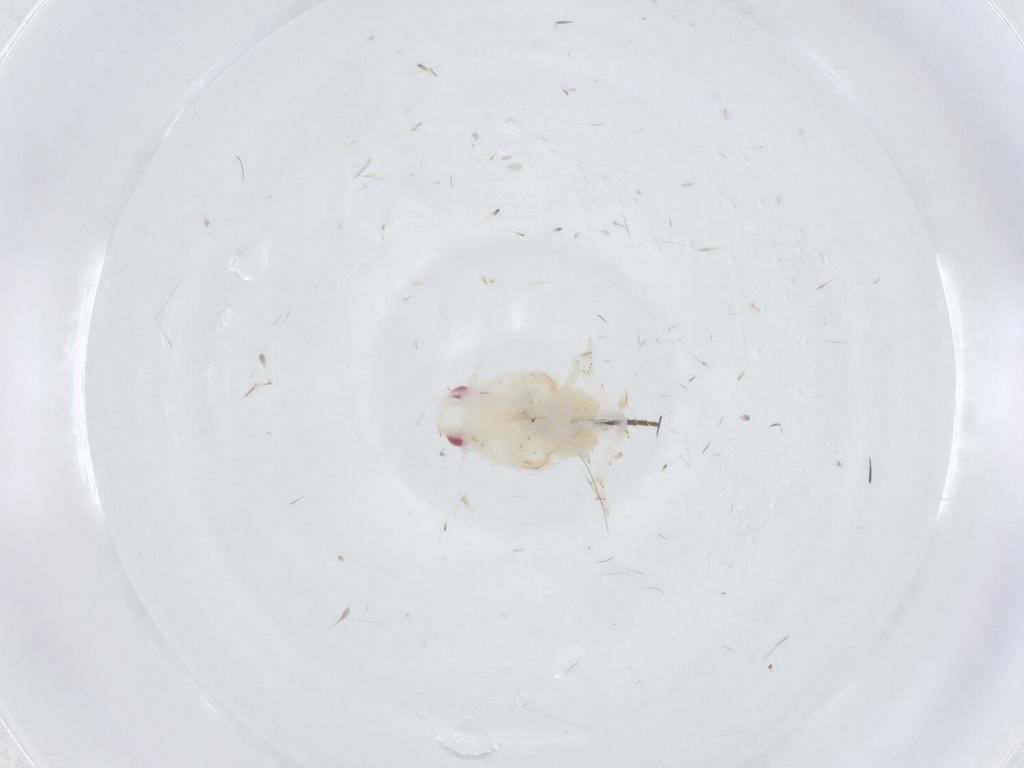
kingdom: Animalia
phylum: Arthropoda
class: Insecta
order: Hemiptera
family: Flatidae
